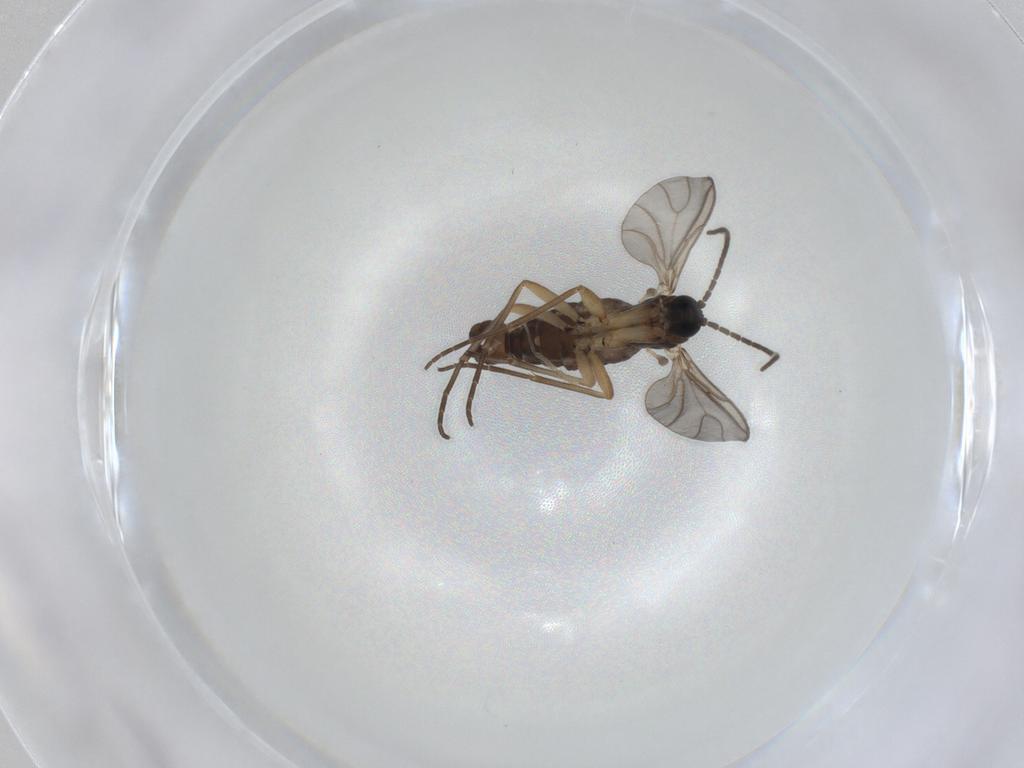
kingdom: Animalia
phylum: Arthropoda
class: Insecta
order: Diptera
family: Sciaridae
